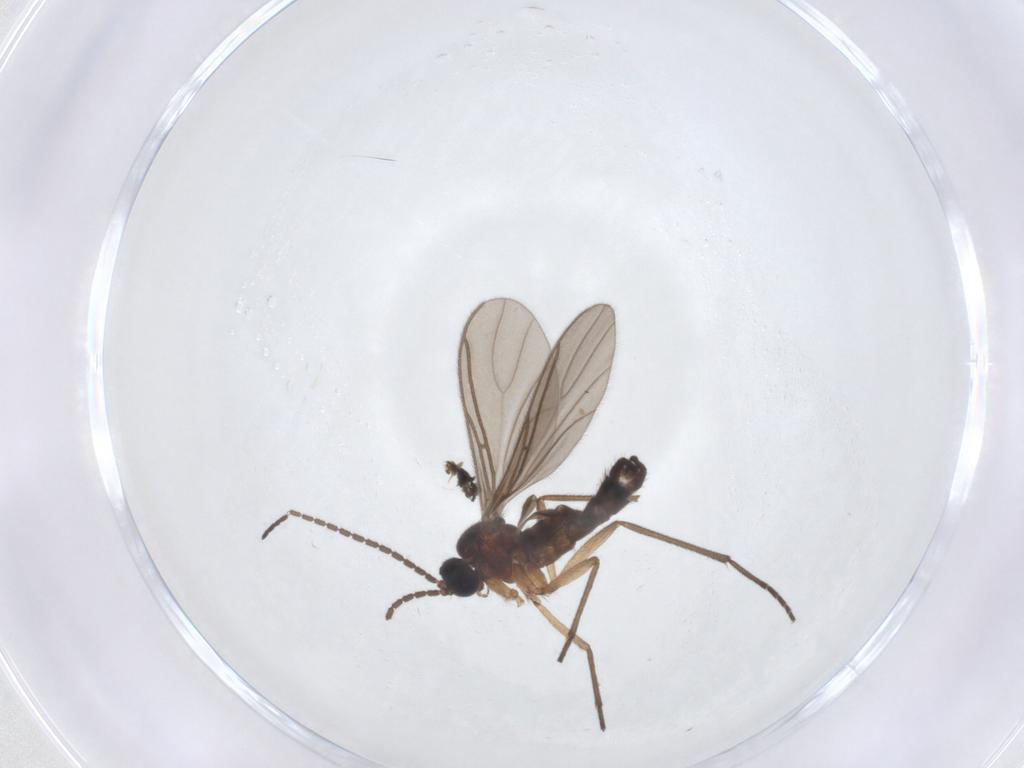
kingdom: Animalia
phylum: Arthropoda
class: Insecta
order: Diptera
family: Sciaridae
